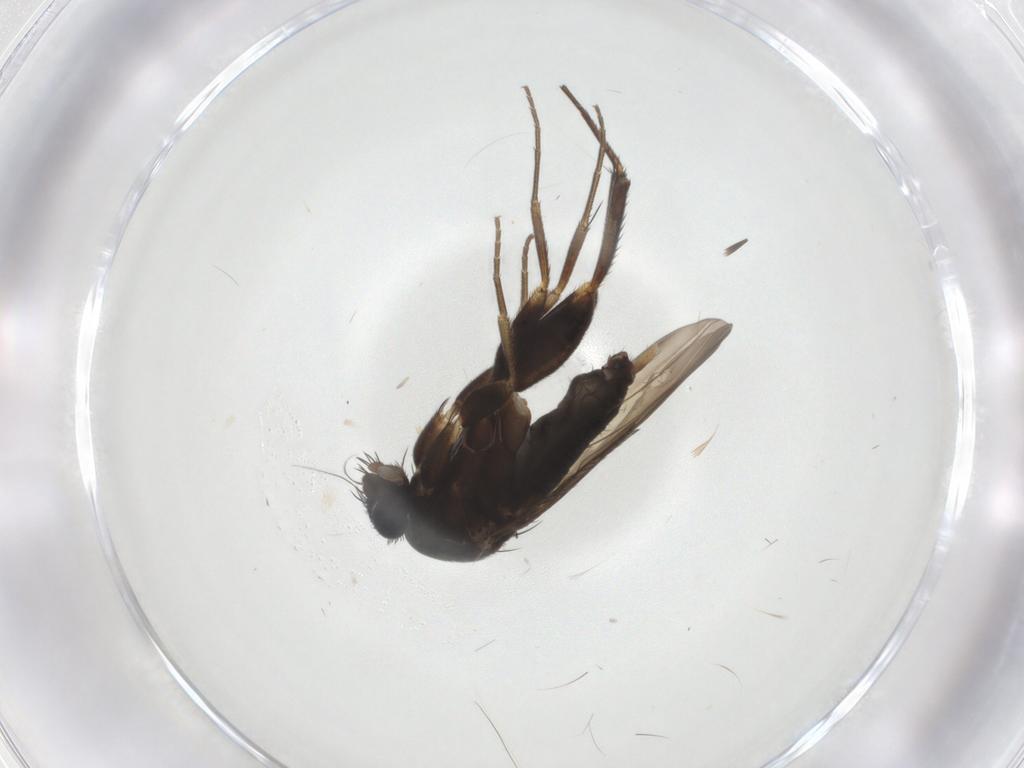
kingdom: Animalia
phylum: Arthropoda
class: Insecta
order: Diptera
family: Phoridae
